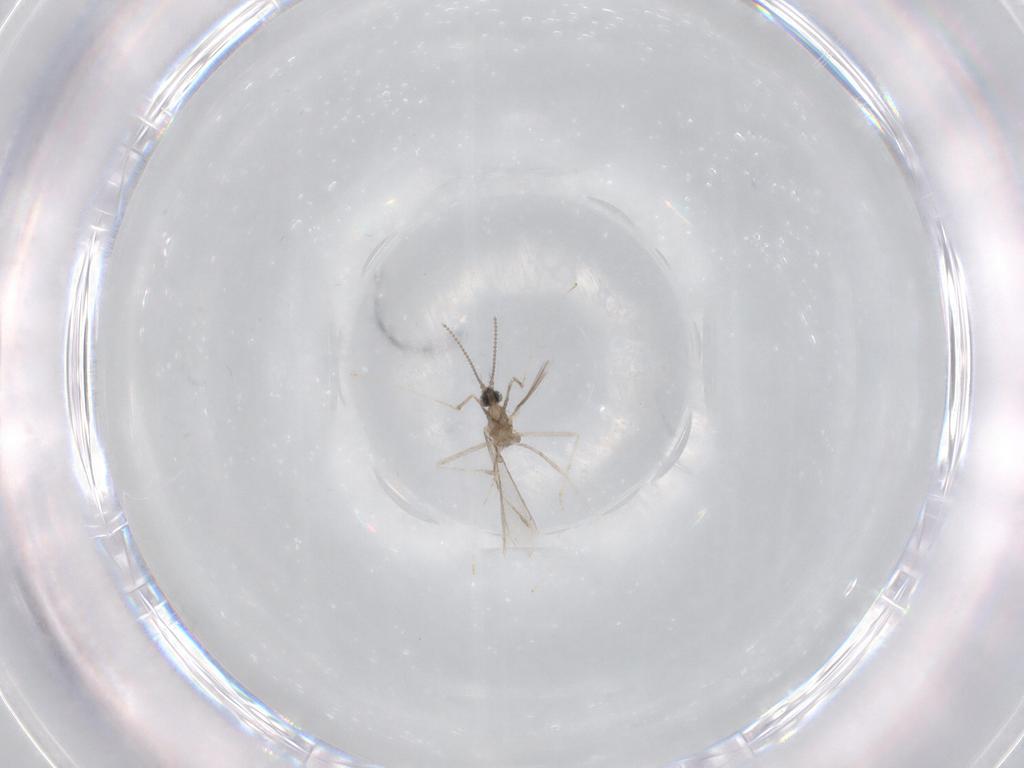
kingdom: Animalia
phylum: Arthropoda
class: Insecta
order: Diptera
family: Cecidomyiidae
